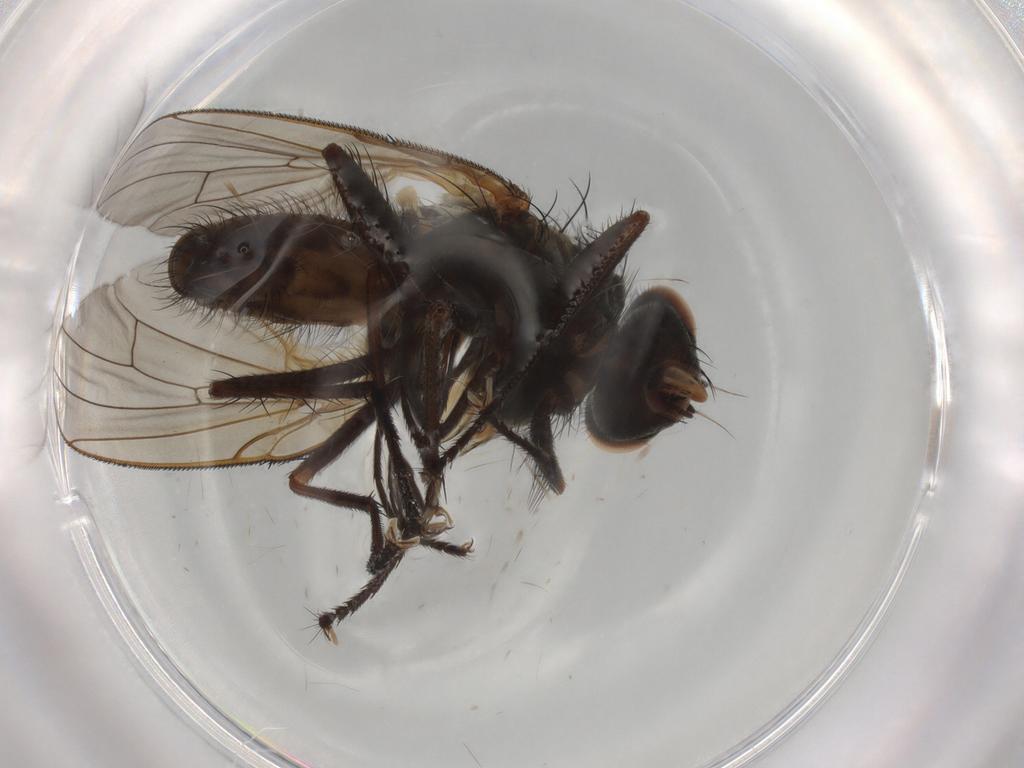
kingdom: Animalia
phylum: Arthropoda
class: Insecta
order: Diptera
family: Anthomyiidae
